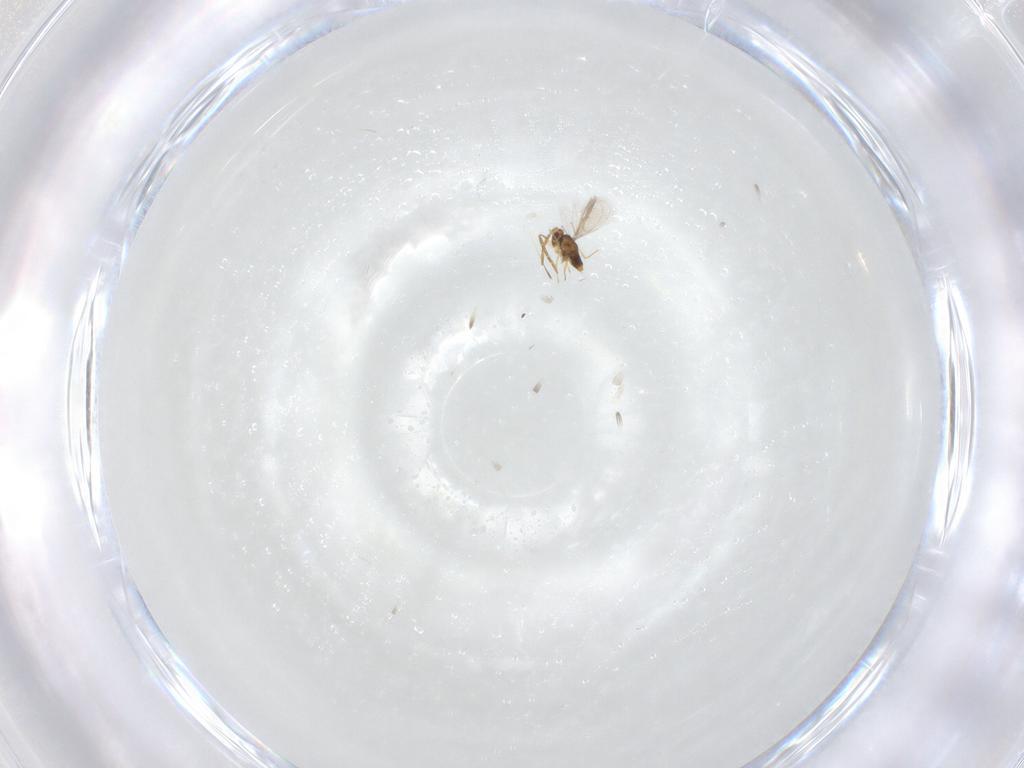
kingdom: Animalia
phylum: Arthropoda
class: Insecta
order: Hymenoptera
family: Aphelinidae
